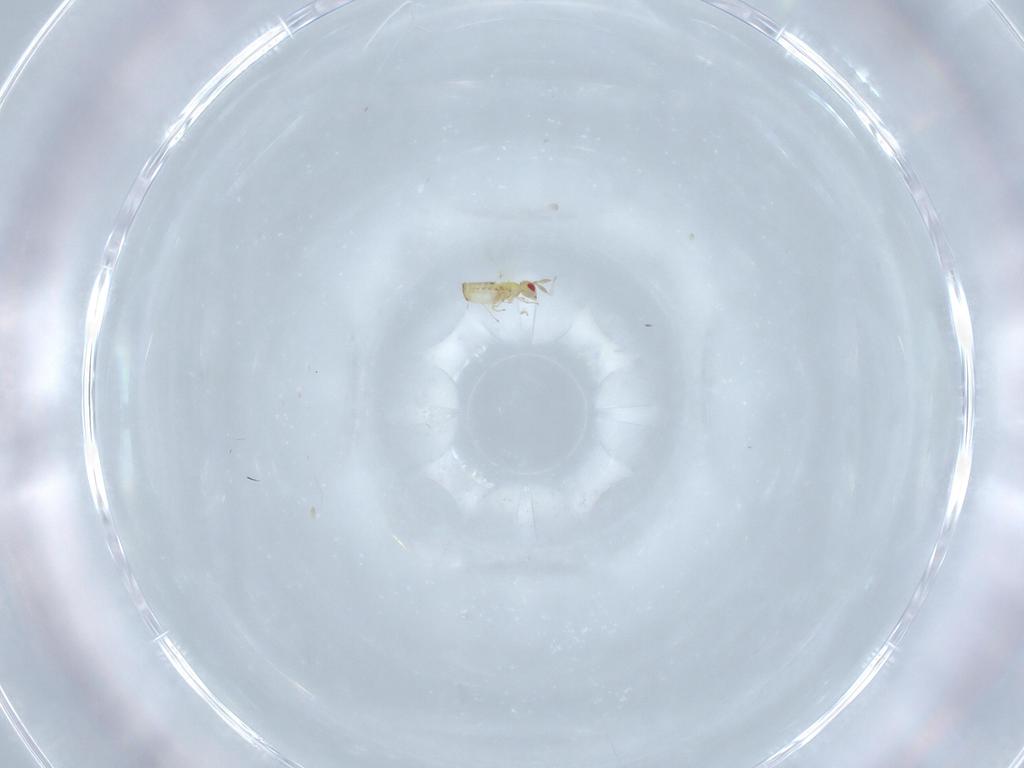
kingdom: Animalia
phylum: Arthropoda
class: Insecta
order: Hymenoptera
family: Trichogrammatidae
